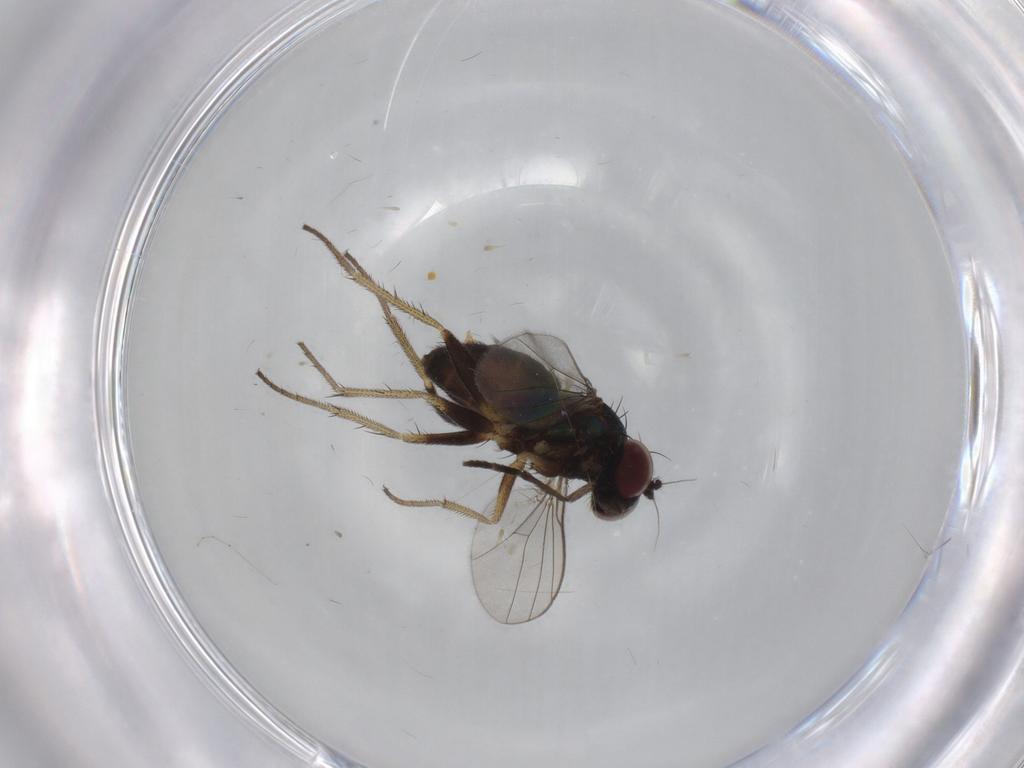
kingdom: Animalia
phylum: Arthropoda
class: Insecta
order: Diptera
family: Dolichopodidae
